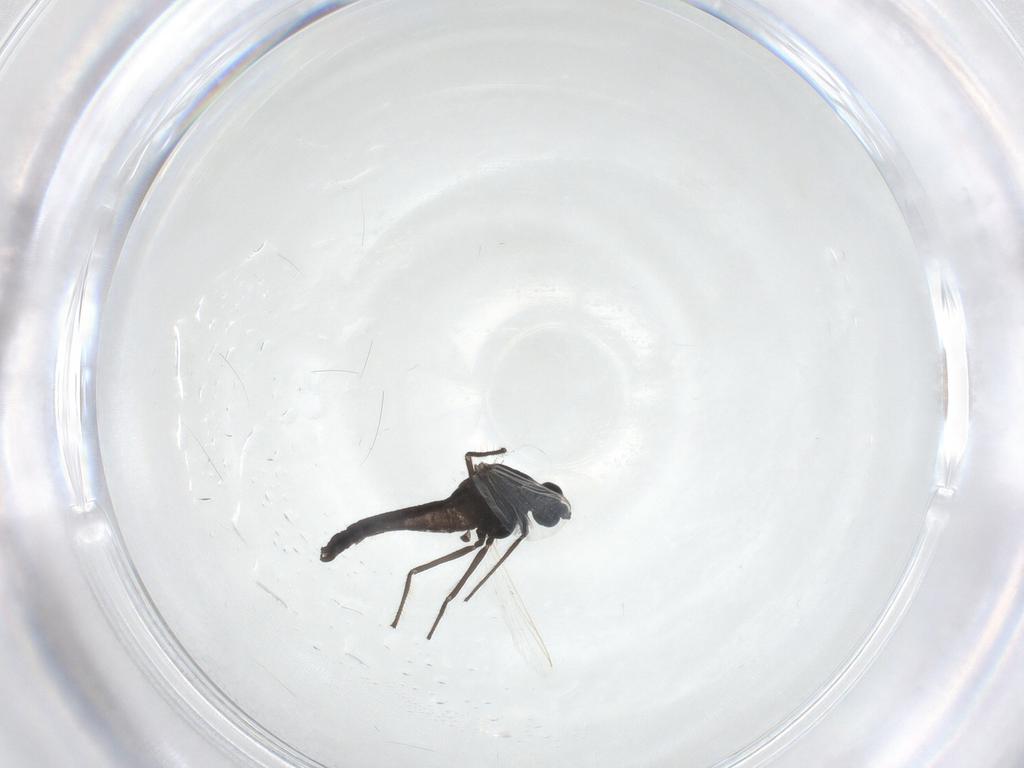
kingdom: Animalia
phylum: Arthropoda
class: Insecta
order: Diptera
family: Chironomidae
